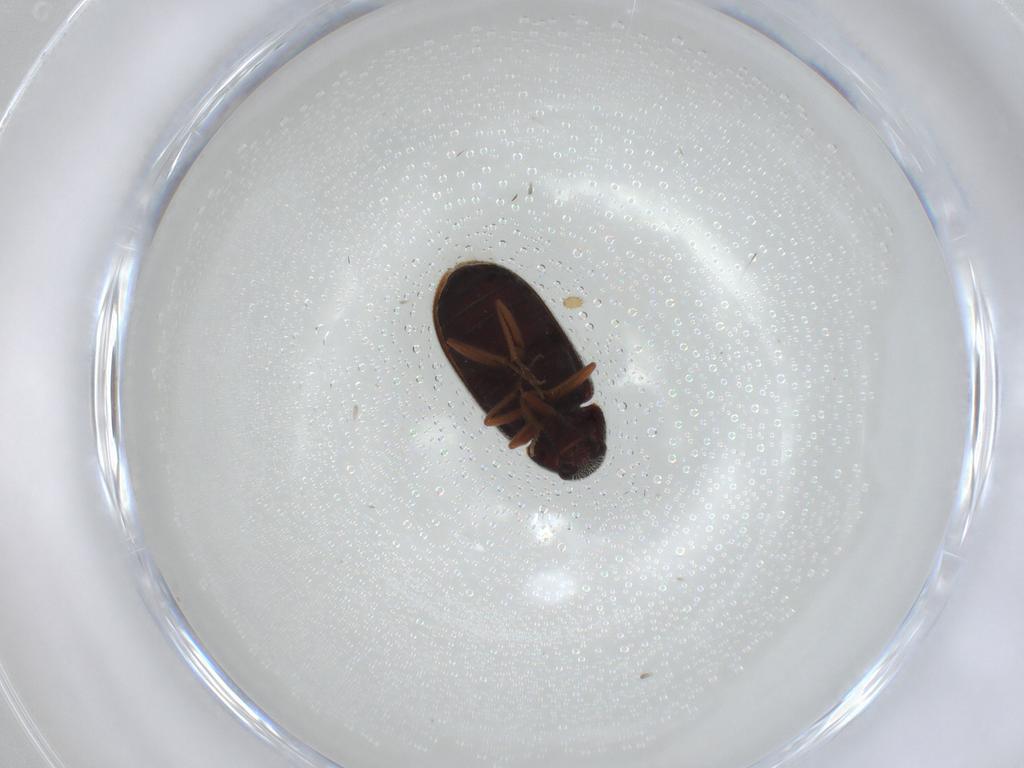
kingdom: Animalia
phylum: Arthropoda
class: Insecta
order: Coleoptera
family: Rhadalidae
